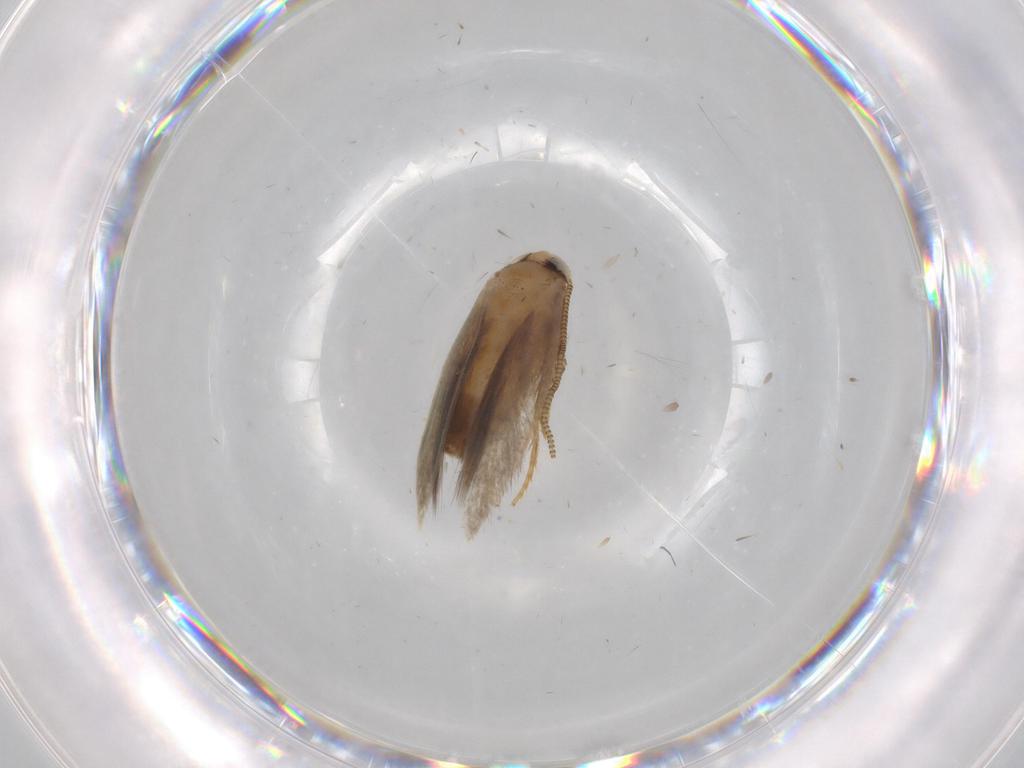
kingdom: Animalia
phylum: Arthropoda
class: Insecta
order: Lepidoptera
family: Nepticulidae
